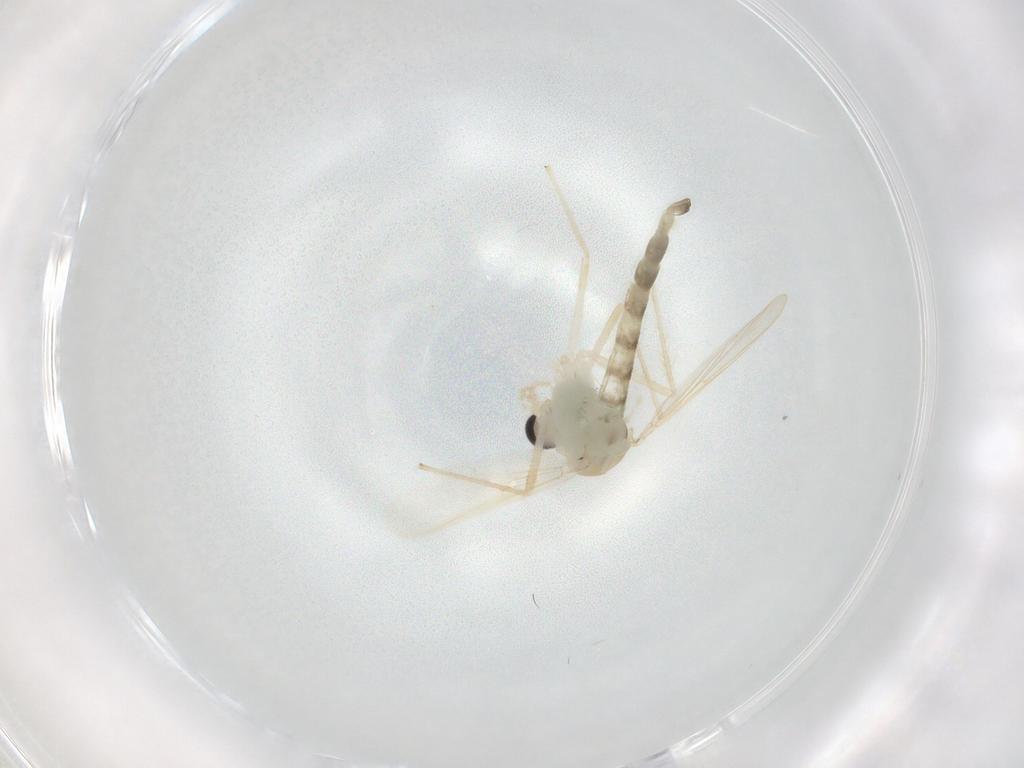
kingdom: Animalia
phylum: Arthropoda
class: Insecta
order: Diptera
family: Chironomidae
